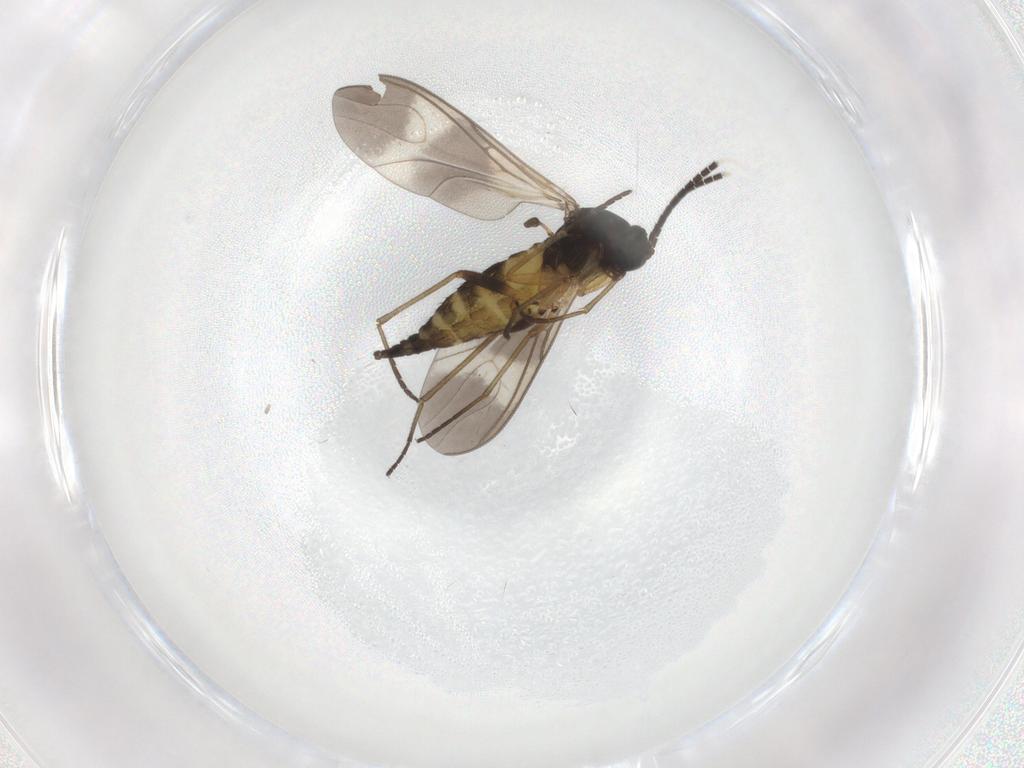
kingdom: Animalia
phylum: Arthropoda
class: Insecta
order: Diptera
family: Sciaridae
